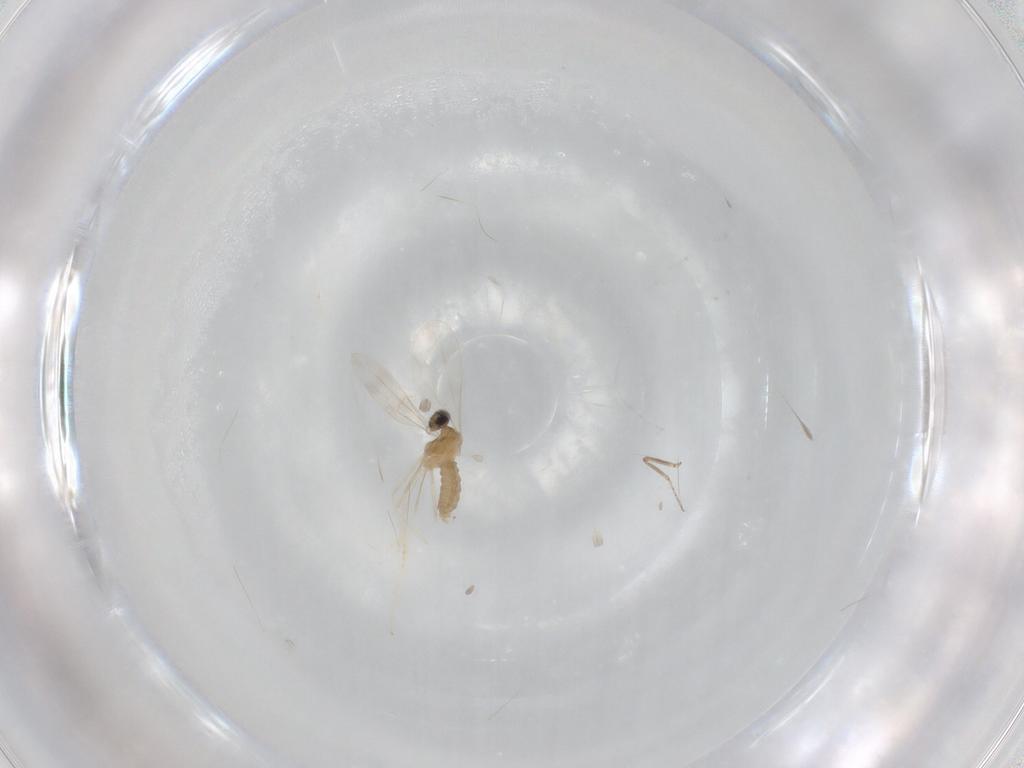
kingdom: Animalia
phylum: Arthropoda
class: Insecta
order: Diptera
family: Cecidomyiidae
